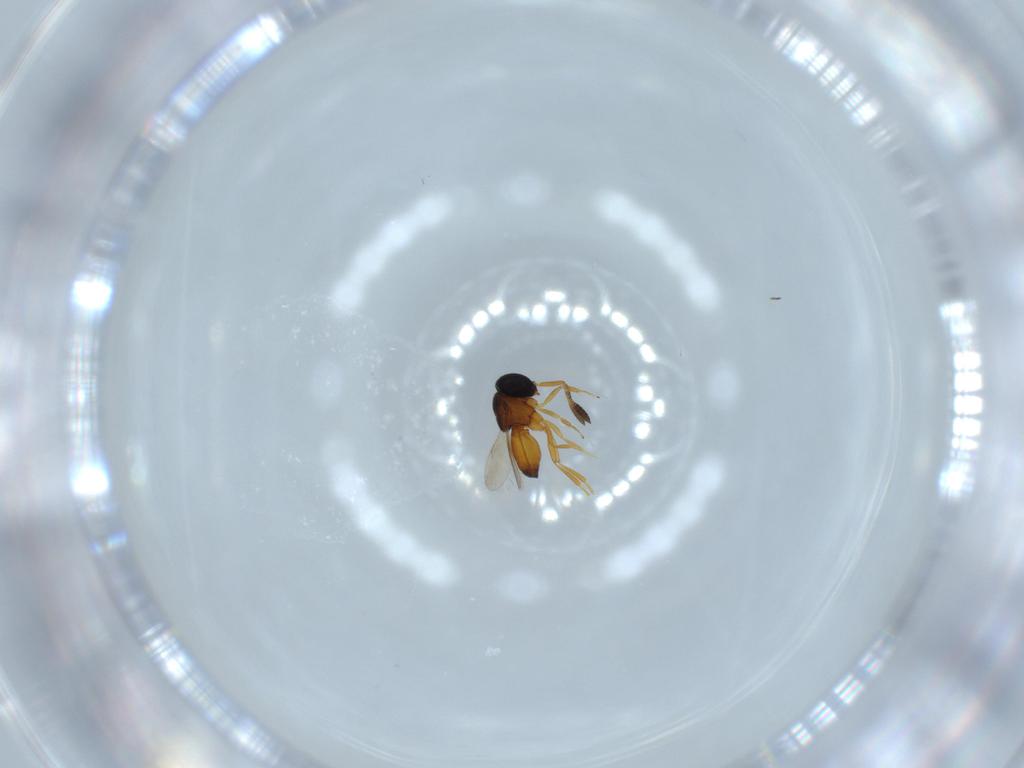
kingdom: Animalia
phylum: Arthropoda
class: Insecta
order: Hymenoptera
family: Scelionidae
